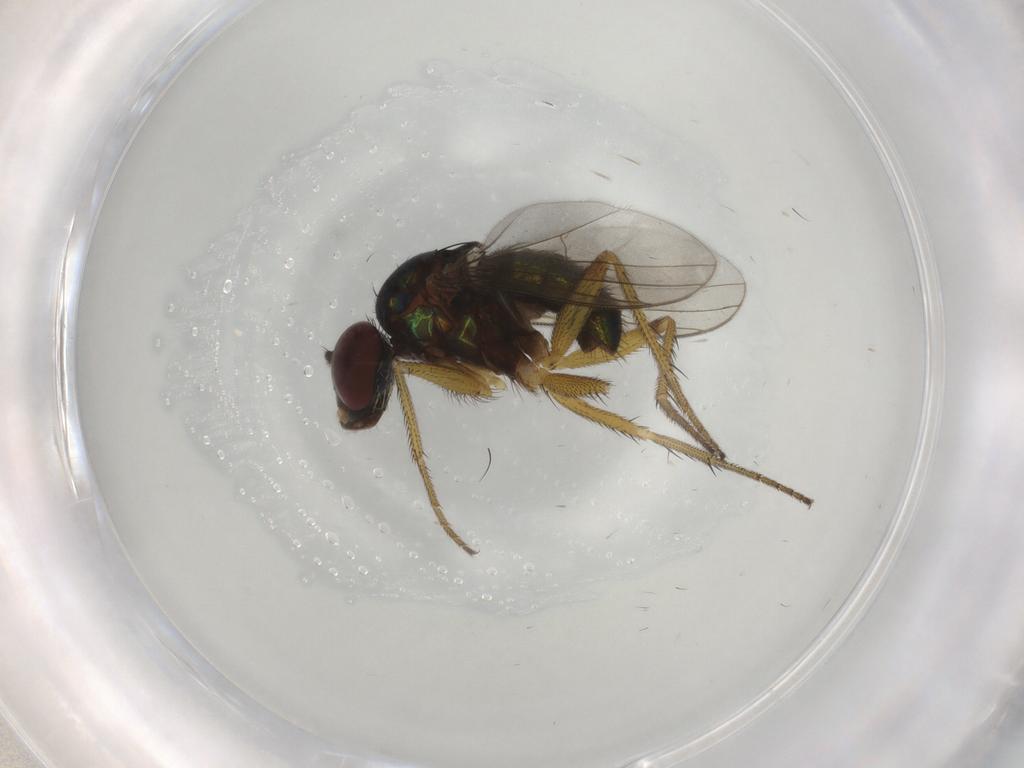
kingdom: Animalia
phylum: Arthropoda
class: Insecta
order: Diptera
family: Dolichopodidae
